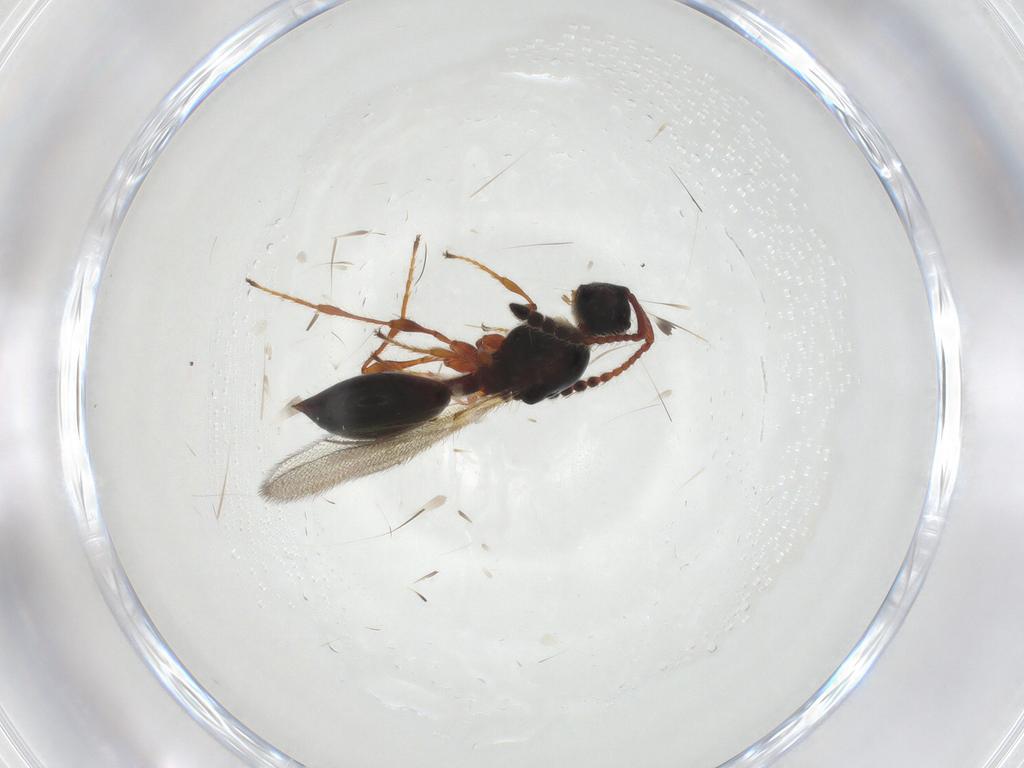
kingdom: Animalia
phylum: Arthropoda
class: Insecta
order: Hymenoptera
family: Diapriidae
